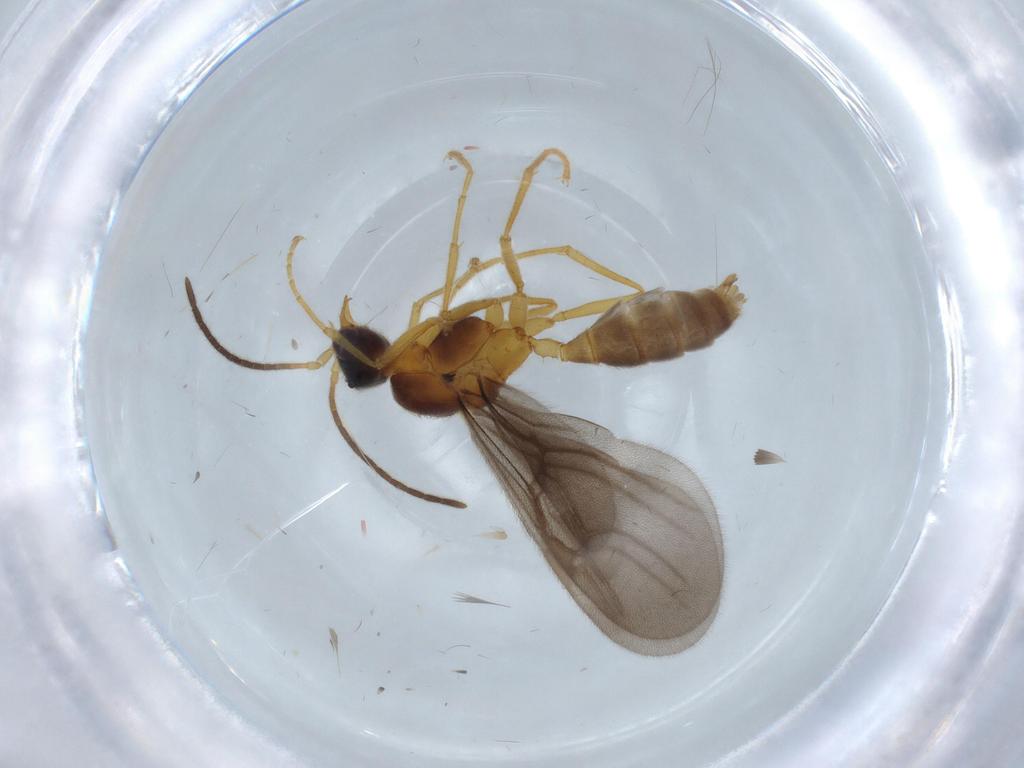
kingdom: Animalia
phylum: Arthropoda
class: Insecta
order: Hymenoptera
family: Formicidae
